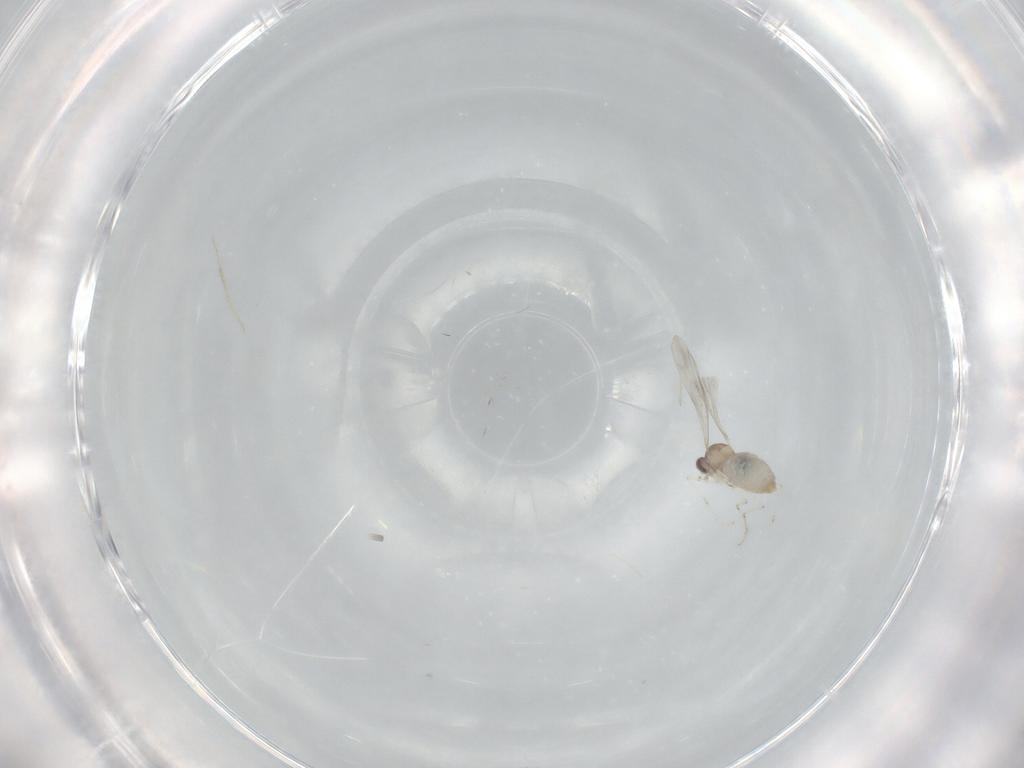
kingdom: Animalia
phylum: Arthropoda
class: Insecta
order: Diptera
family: Cecidomyiidae
